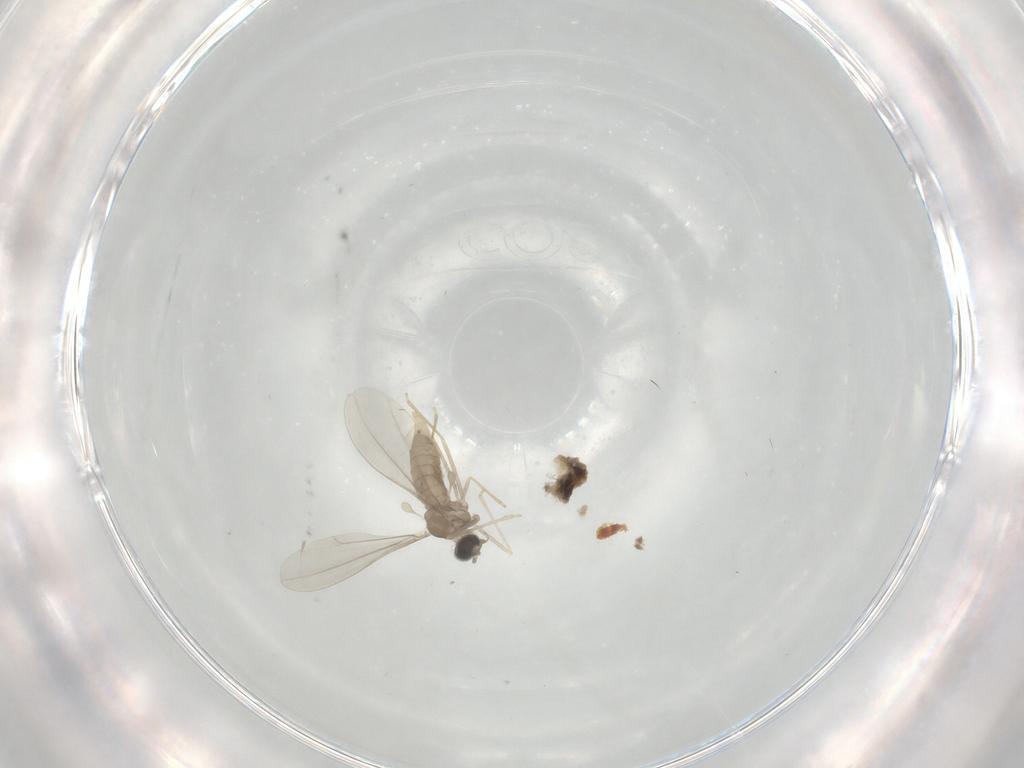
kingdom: Animalia
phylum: Arthropoda
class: Insecta
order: Diptera
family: Cecidomyiidae
